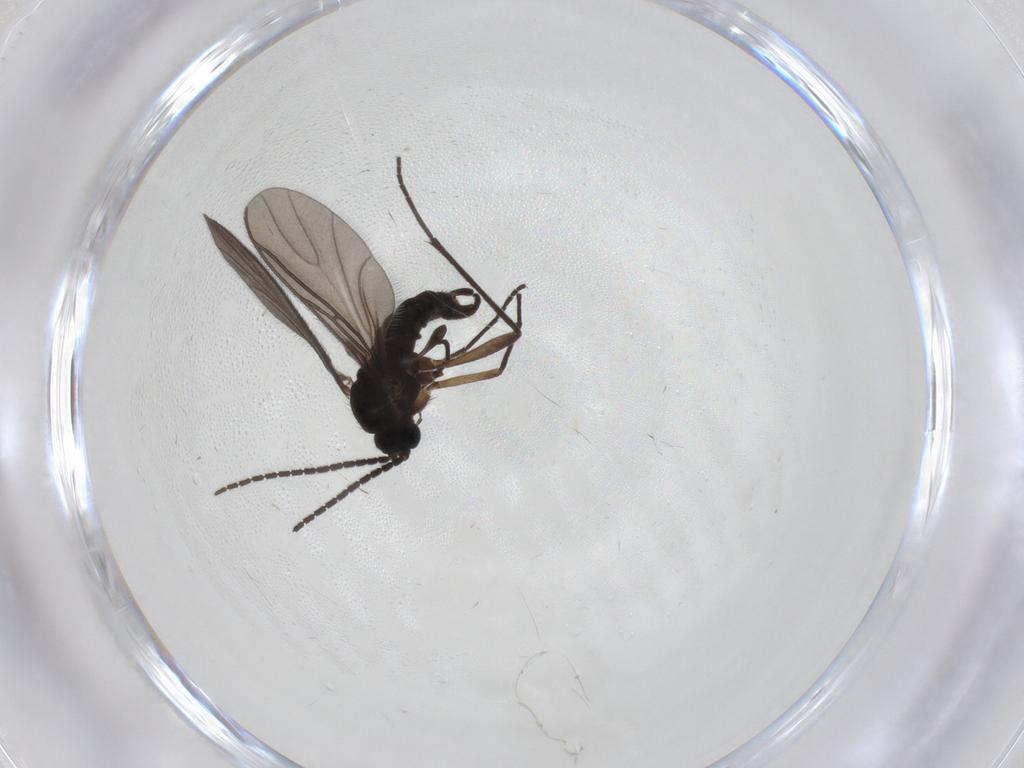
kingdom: Animalia
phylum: Arthropoda
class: Insecta
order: Diptera
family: Sciaridae
